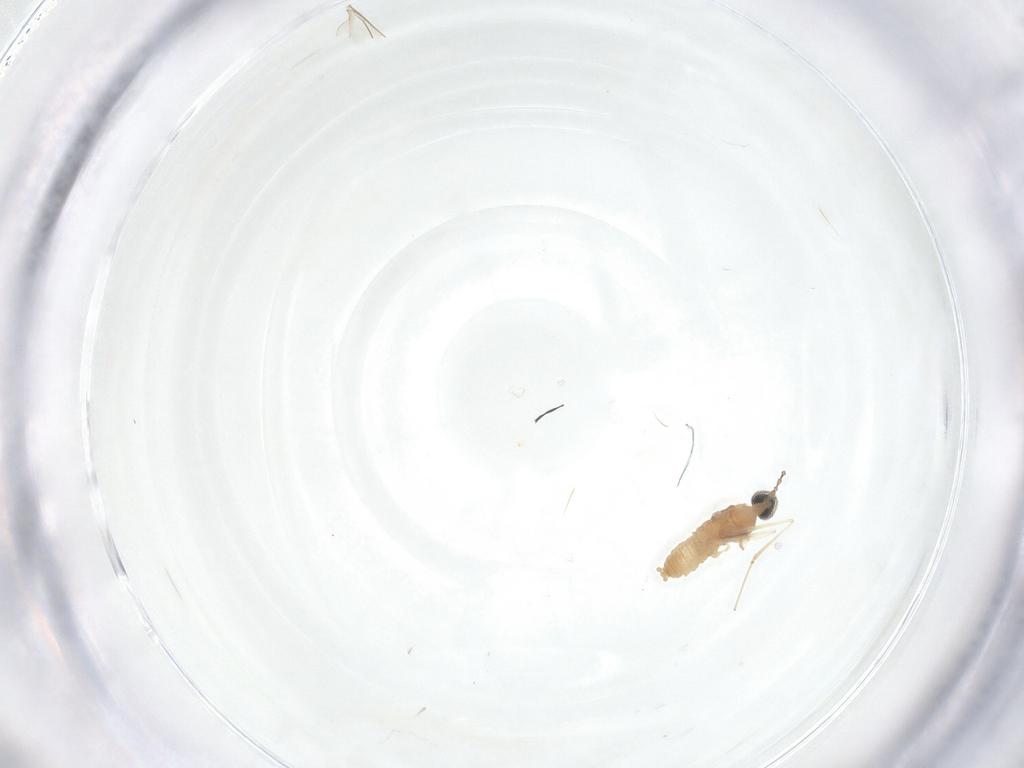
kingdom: Animalia
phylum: Arthropoda
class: Insecta
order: Diptera
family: Cecidomyiidae
